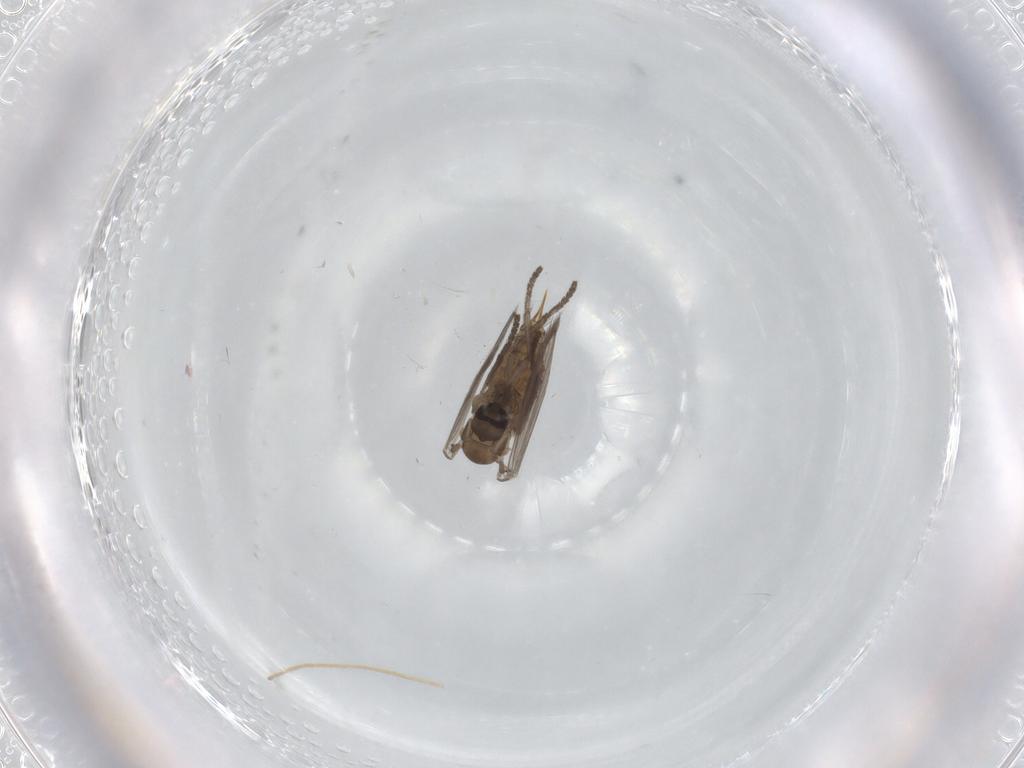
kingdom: Animalia
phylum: Arthropoda
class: Insecta
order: Diptera
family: Psychodidae
